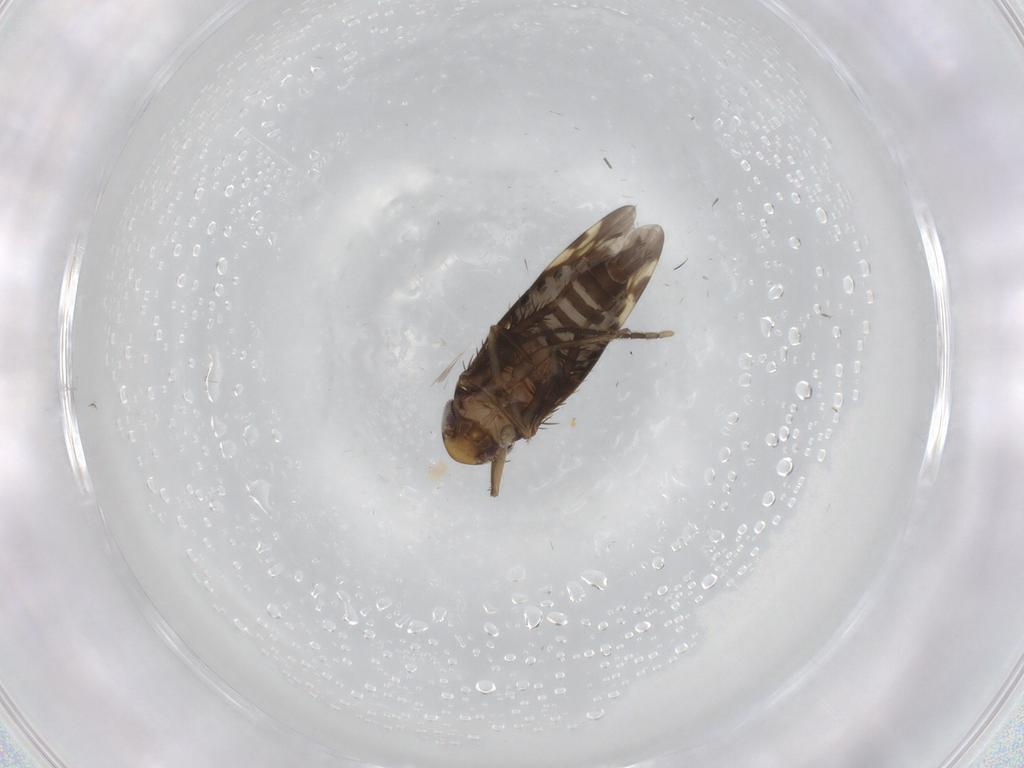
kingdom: Animalia
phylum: Arthropoda
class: Insecta
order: Hemiptera
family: Cicadellidae
